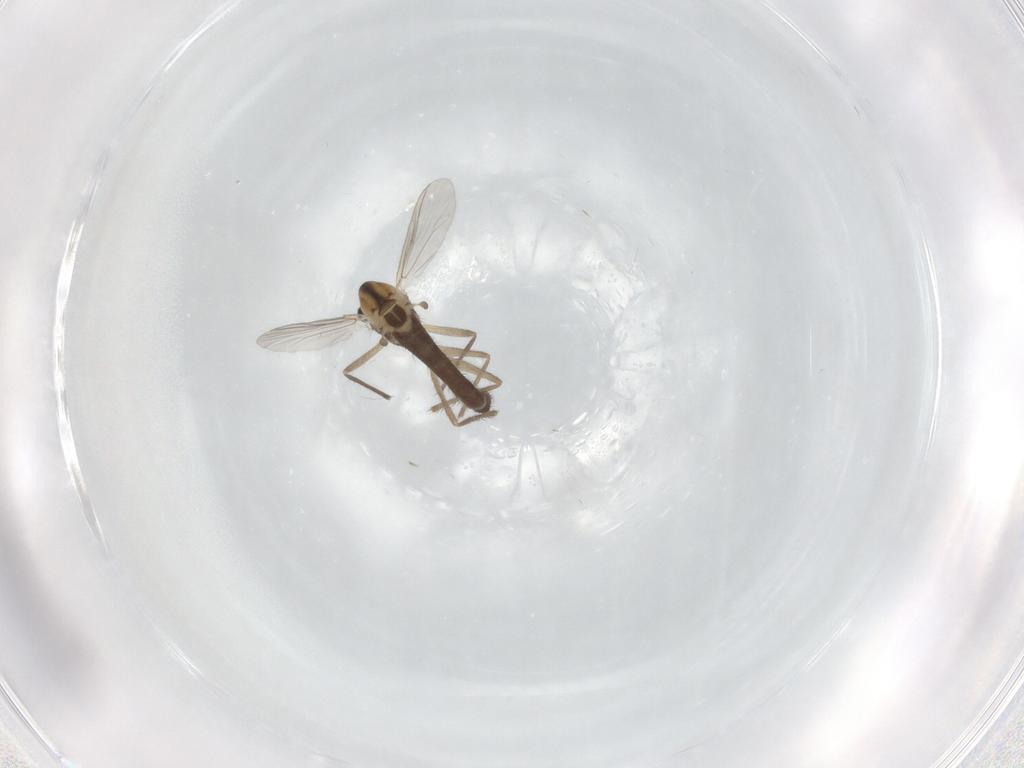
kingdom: Animalia
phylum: Arthropoda
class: Insecta
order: Diptera
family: Chironomidae
